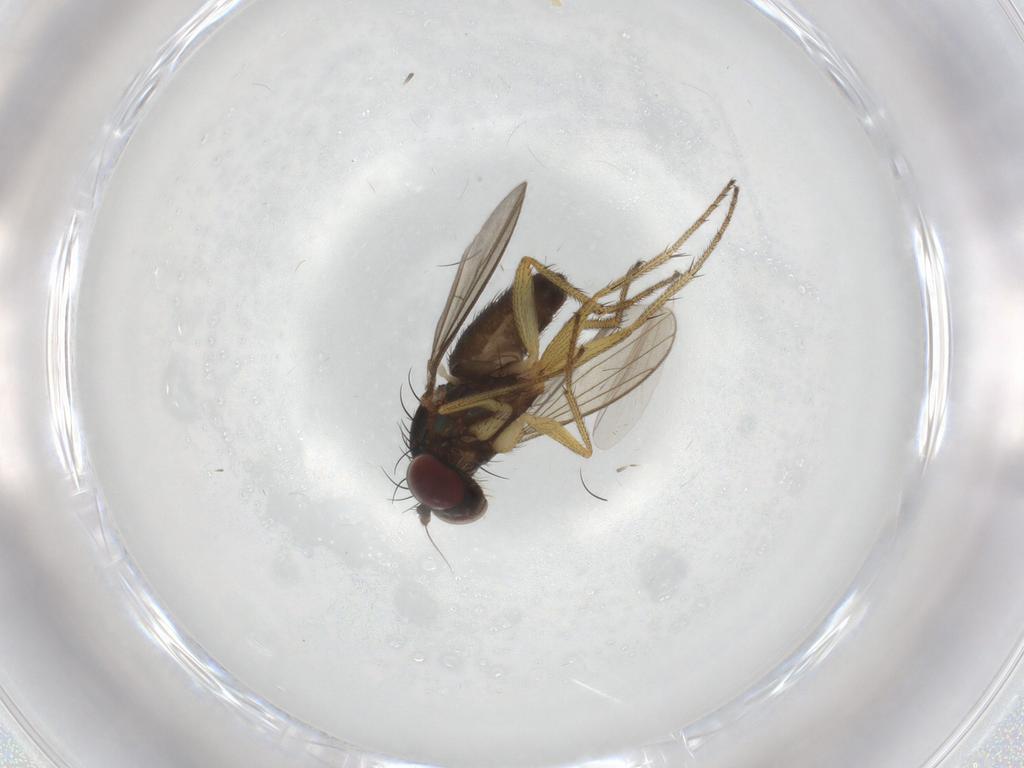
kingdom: Animalia
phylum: Arthropoda
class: Insecta
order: Diptera
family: Dolichopodidae
